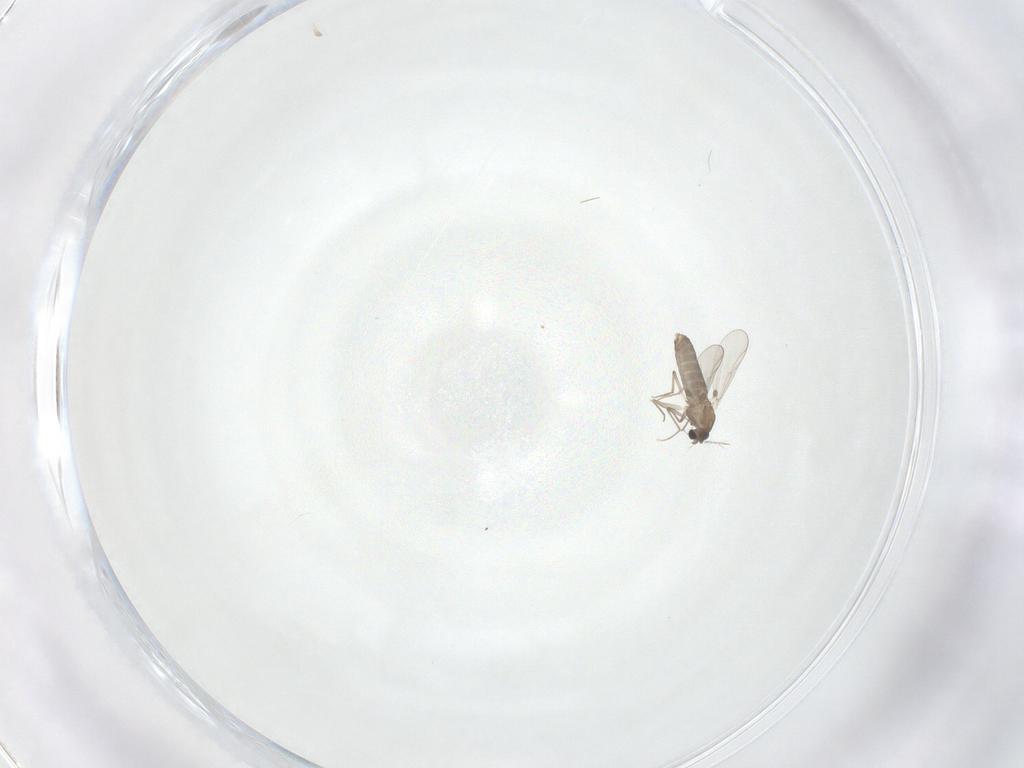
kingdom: Animalia
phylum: Arthropoda
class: Insecta
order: Diptera
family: Chironomidae
